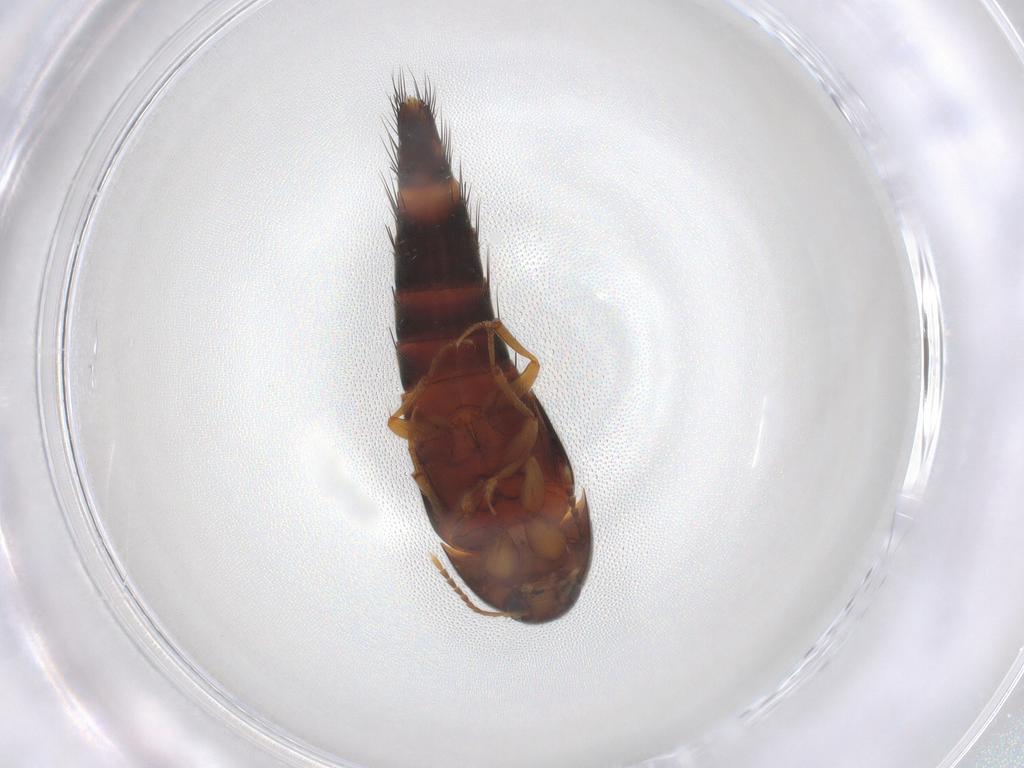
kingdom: Animalia
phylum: Arthropoda
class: Insecta
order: Coleoptera
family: Staphylinidae
